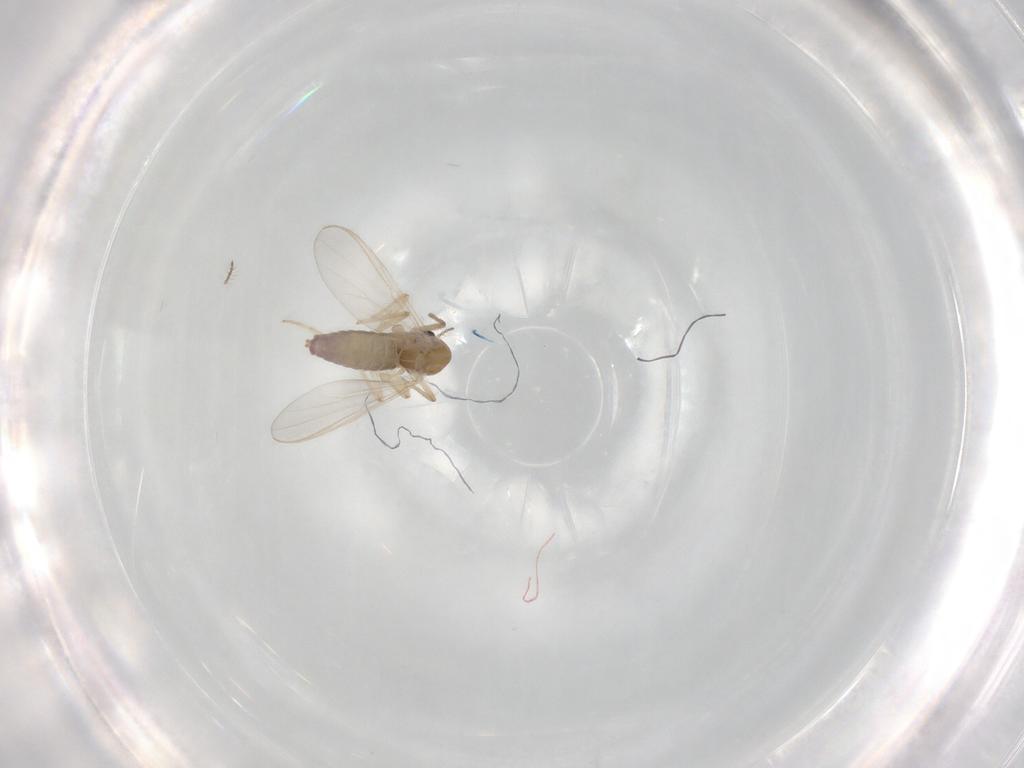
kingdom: Animalia
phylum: Arthropoda
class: Insecta
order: Diptera
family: Chironomidae
